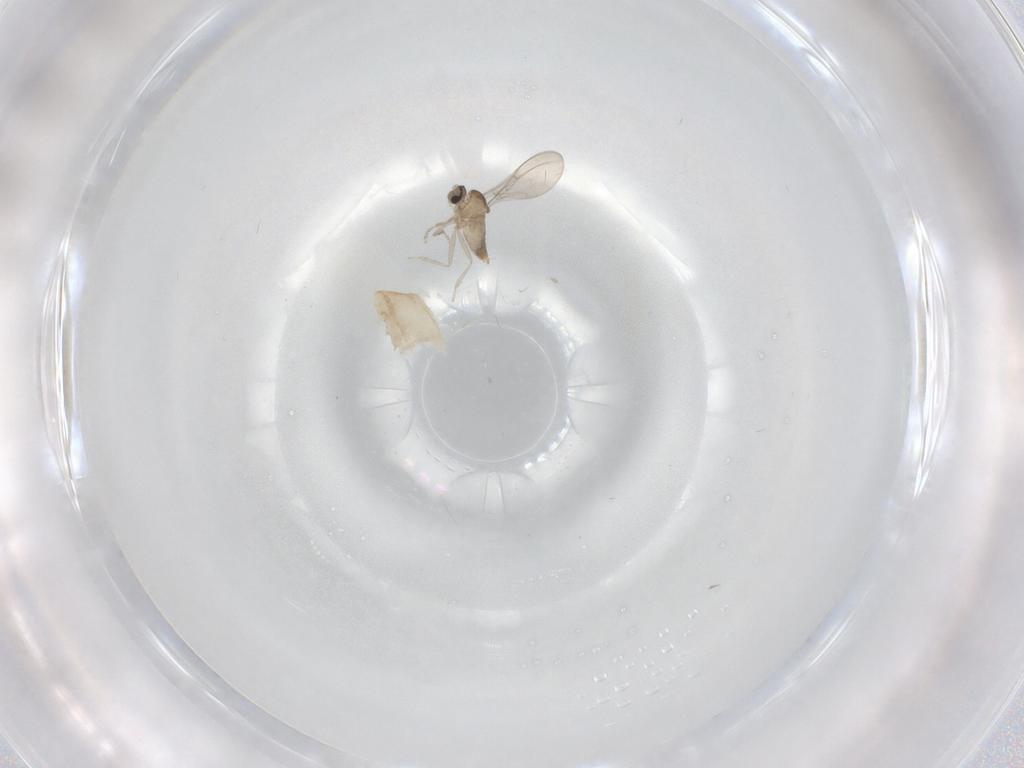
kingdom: Animalia
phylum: Arthropoda
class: Insecta
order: Diptera
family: Cecidomyiidae
